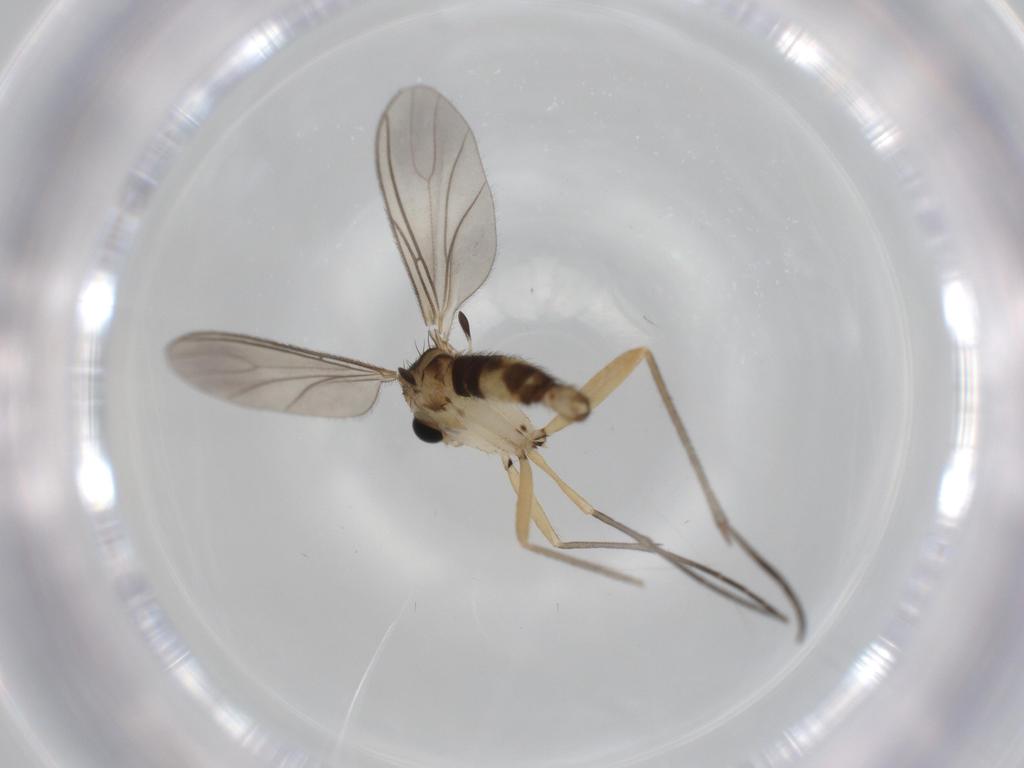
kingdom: Animalia
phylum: Arthropoda
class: Insecta
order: Diptera
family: Sciaridae
